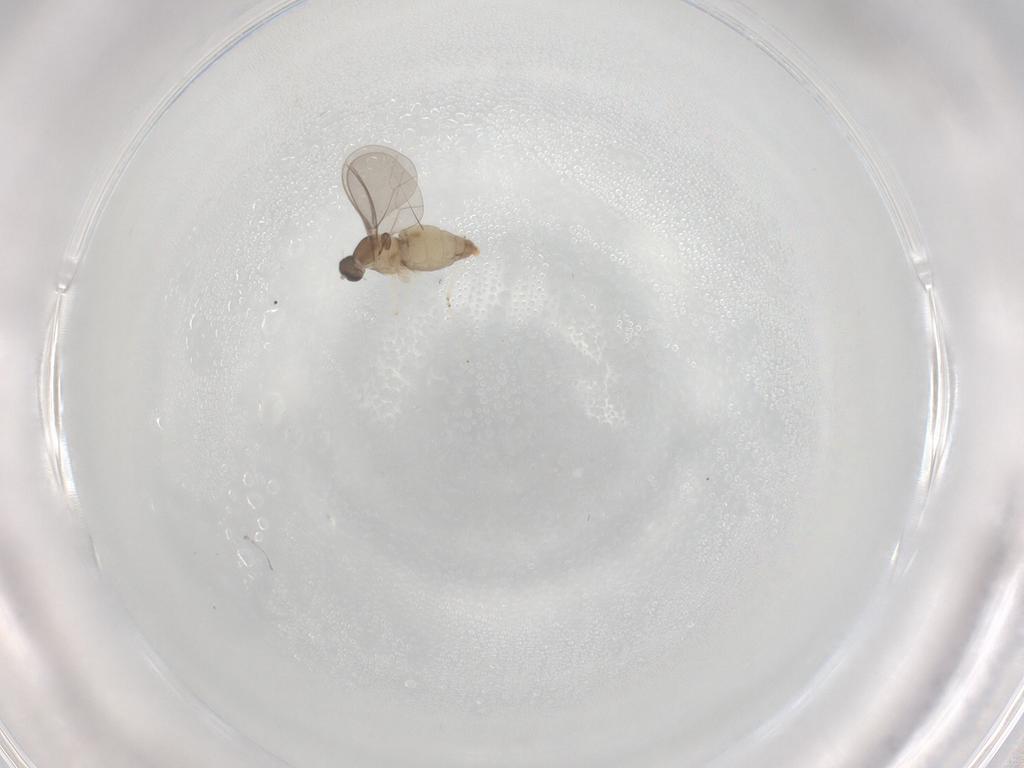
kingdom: Animalia
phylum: Arthropoda
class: Insecta
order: Diptera
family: Cecidomyiidae
